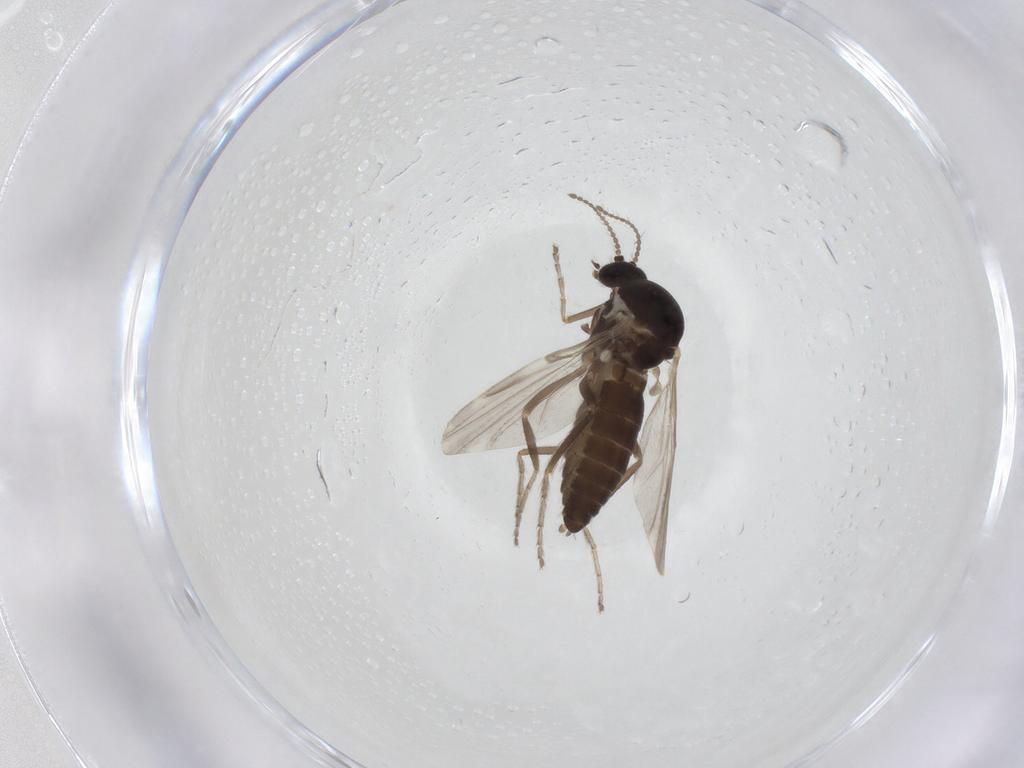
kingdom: Animalia
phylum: Arthropoda
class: Insecta
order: Diptera
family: Ceratopogonidae
